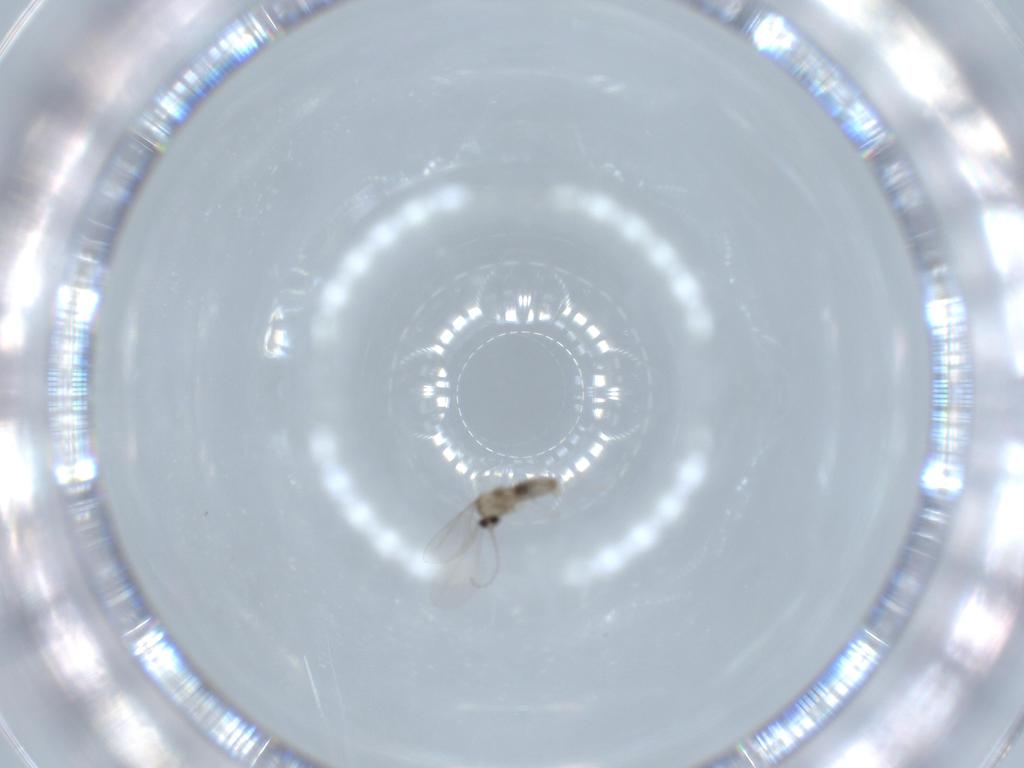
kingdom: Animalia
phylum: Arthropoda
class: Insecta
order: Diptera
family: Cecidomyiidae
